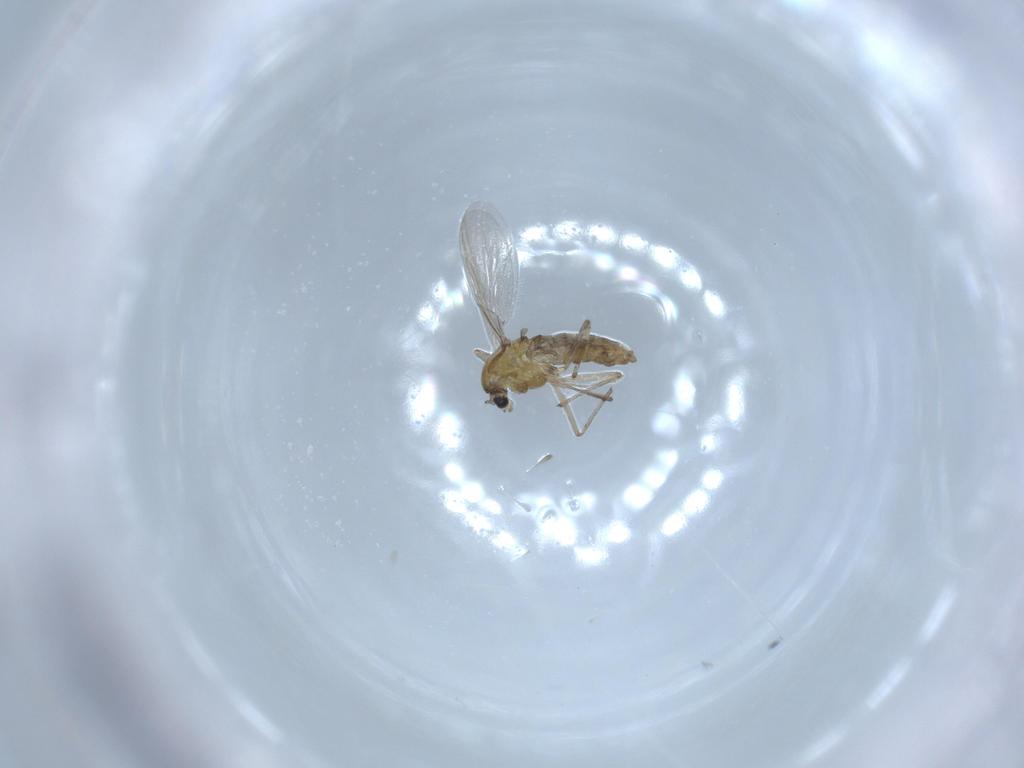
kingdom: Animalia
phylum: Arthropoda
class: Insecta
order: Diptera
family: Chironomidae
